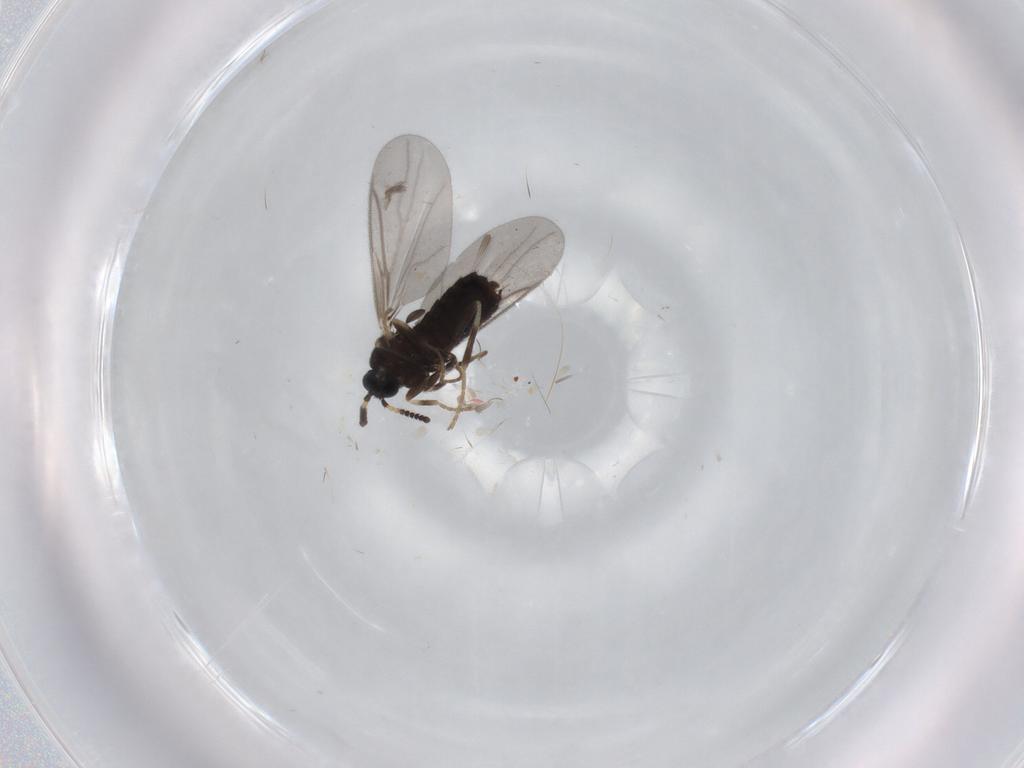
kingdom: Animalia
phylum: Arthropoda
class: Insecta
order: Diptera
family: Scatopsidae
